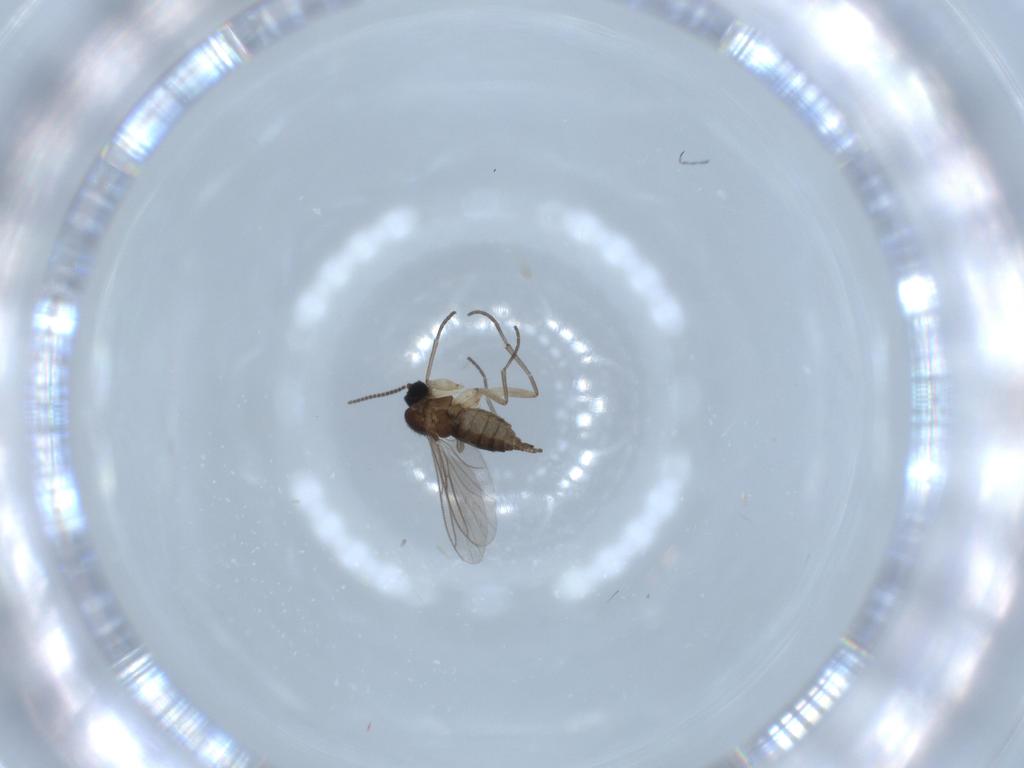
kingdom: Animalia
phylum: Arthropoda
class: Insecta
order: Diptera
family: Sciaridae
